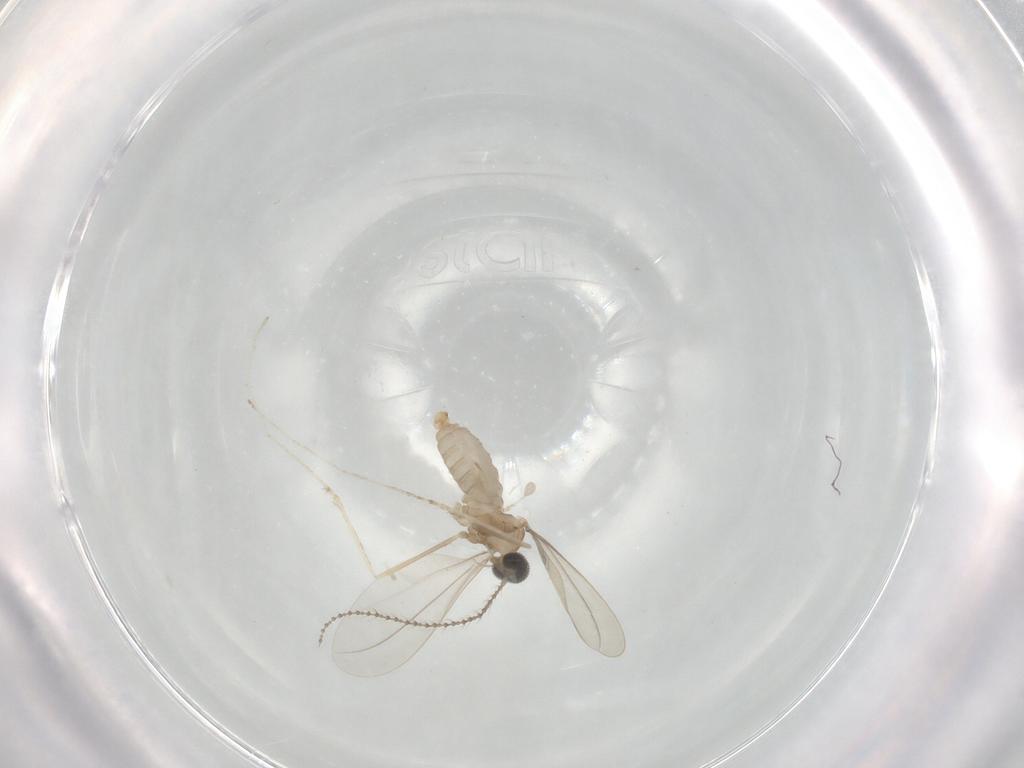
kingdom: Animalia
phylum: Arthropoda
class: Insecta
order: Diptera
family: Cecidomyiidae
